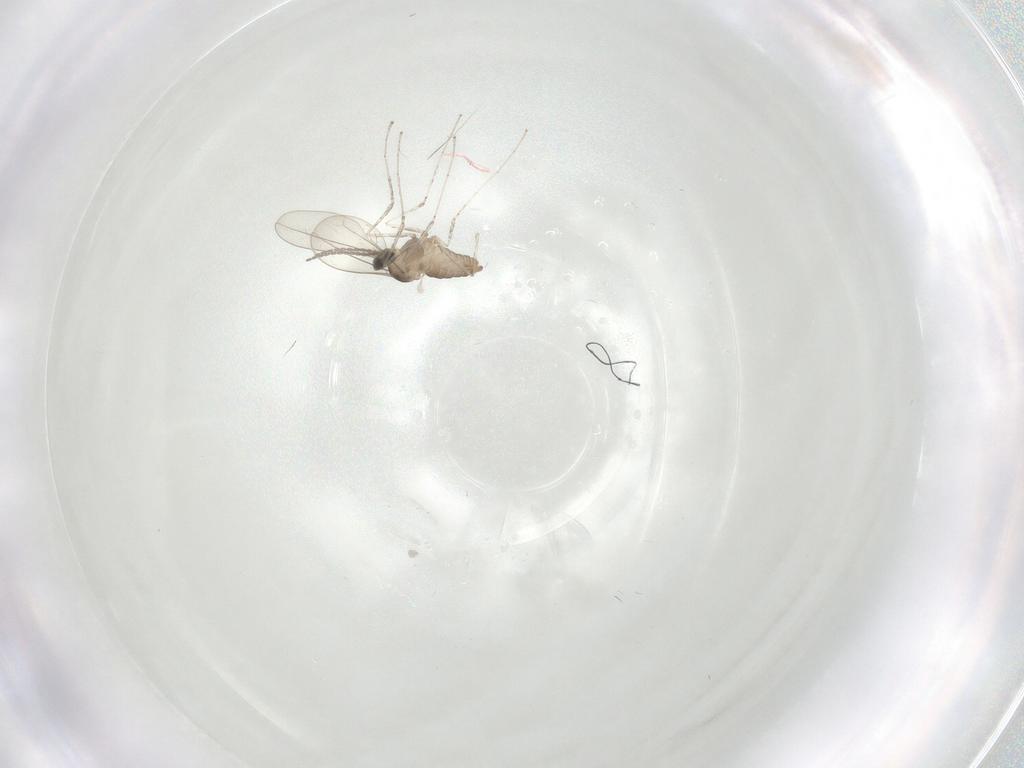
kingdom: Animalia
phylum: Arthropoda
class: Insecta
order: Diptera
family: Cecidomyiidae
